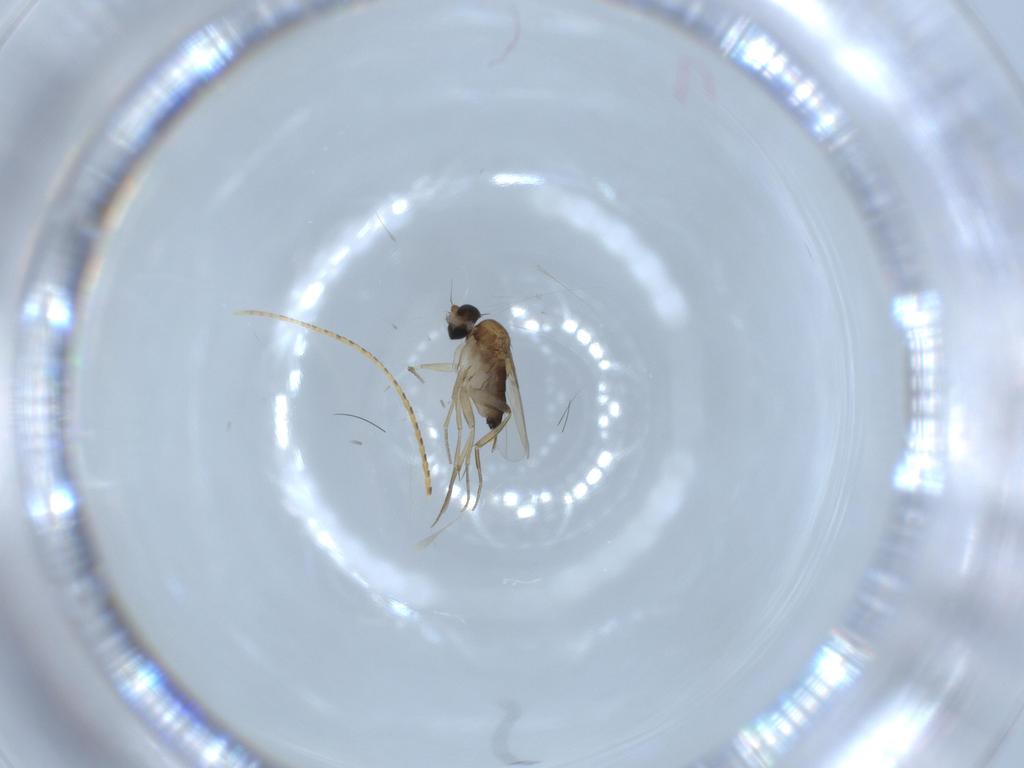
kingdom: Animalia
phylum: Arthropoda
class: Insecta
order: Diptera
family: Phoridae
